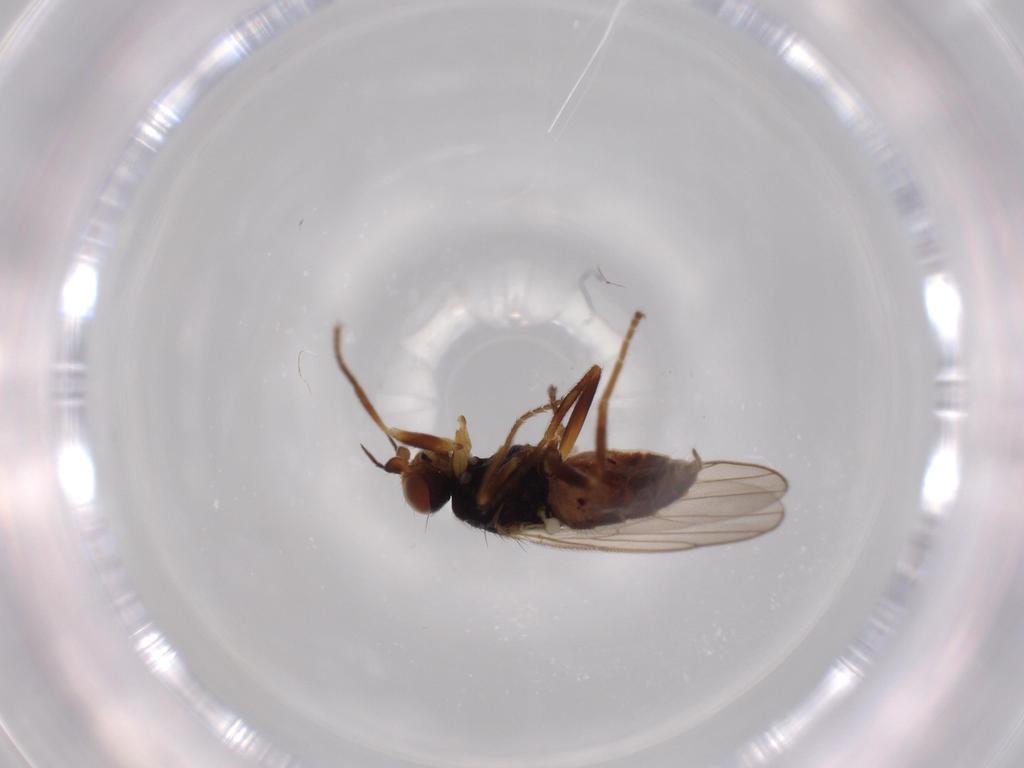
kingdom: Animalia
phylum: Arthropoda
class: Insecta
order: Diptera
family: Chloropidae
